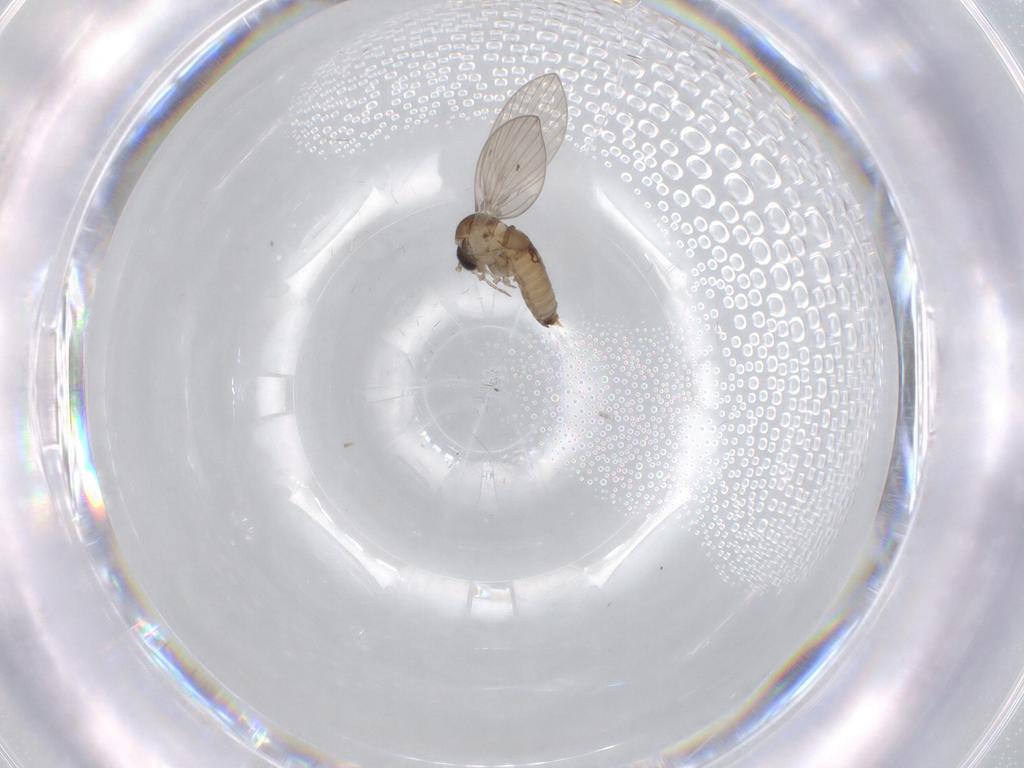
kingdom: Animalia
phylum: Arthropoda
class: Insecta
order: Diptera
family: Psychodidae
